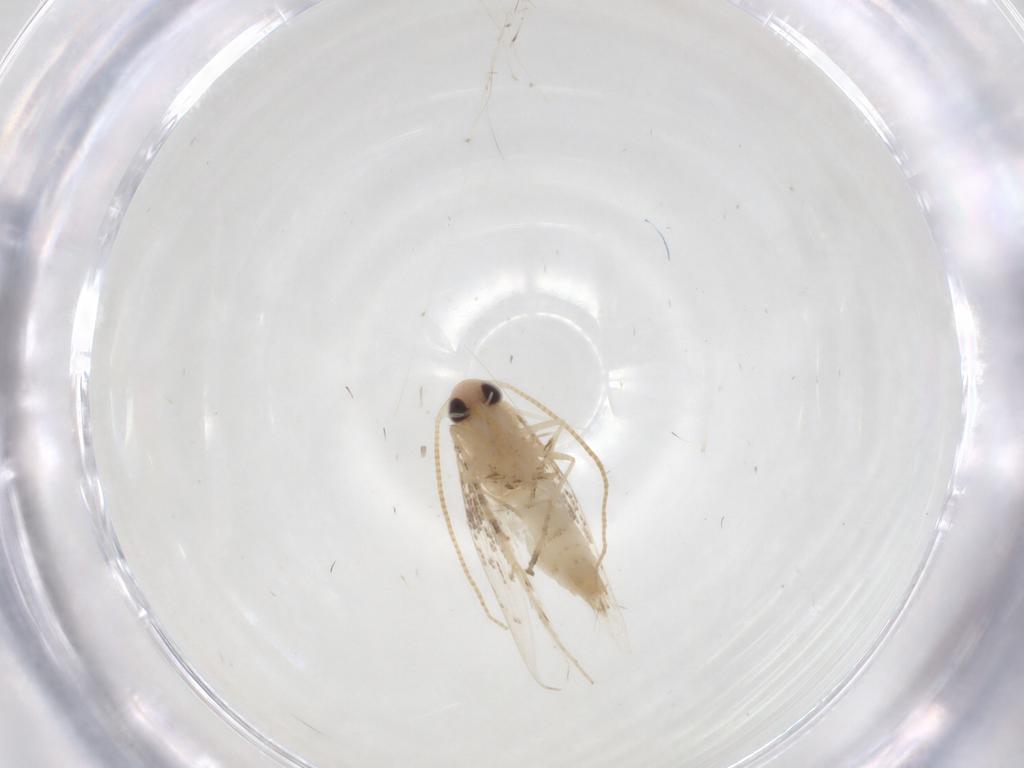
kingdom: Animalia
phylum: Arthropoda
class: Insecta
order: Lepidoptera
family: Gracillariidae
